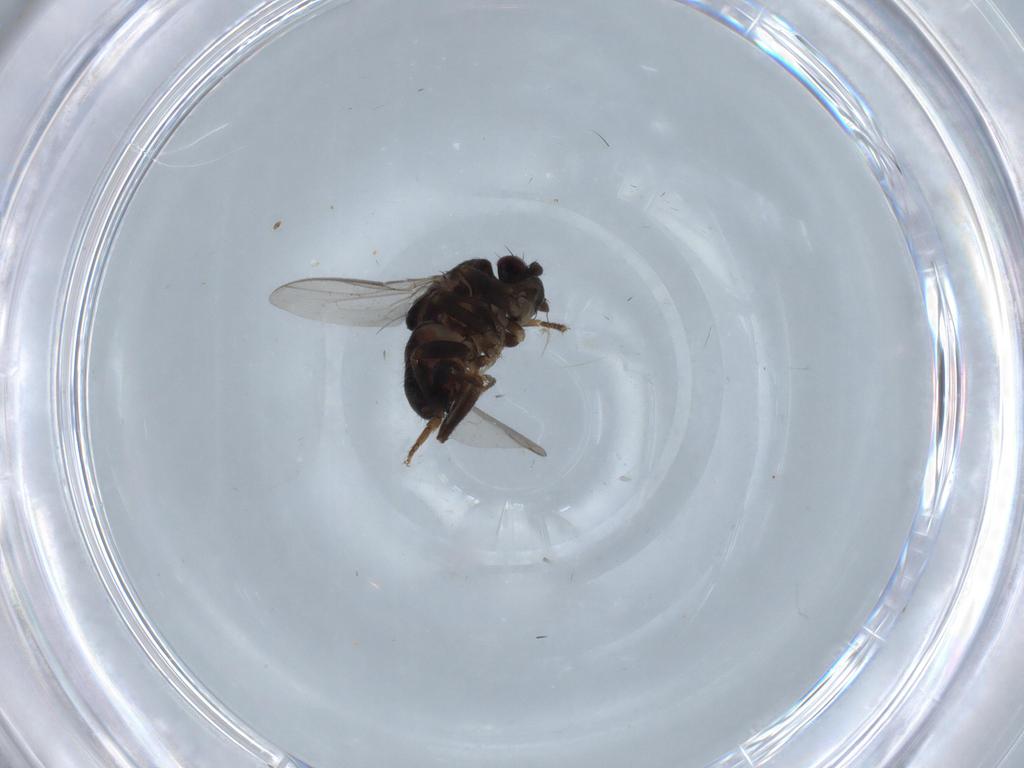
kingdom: Animalia
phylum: Arthropoda
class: Insecta
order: Diptera
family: Sphaeroceridae
